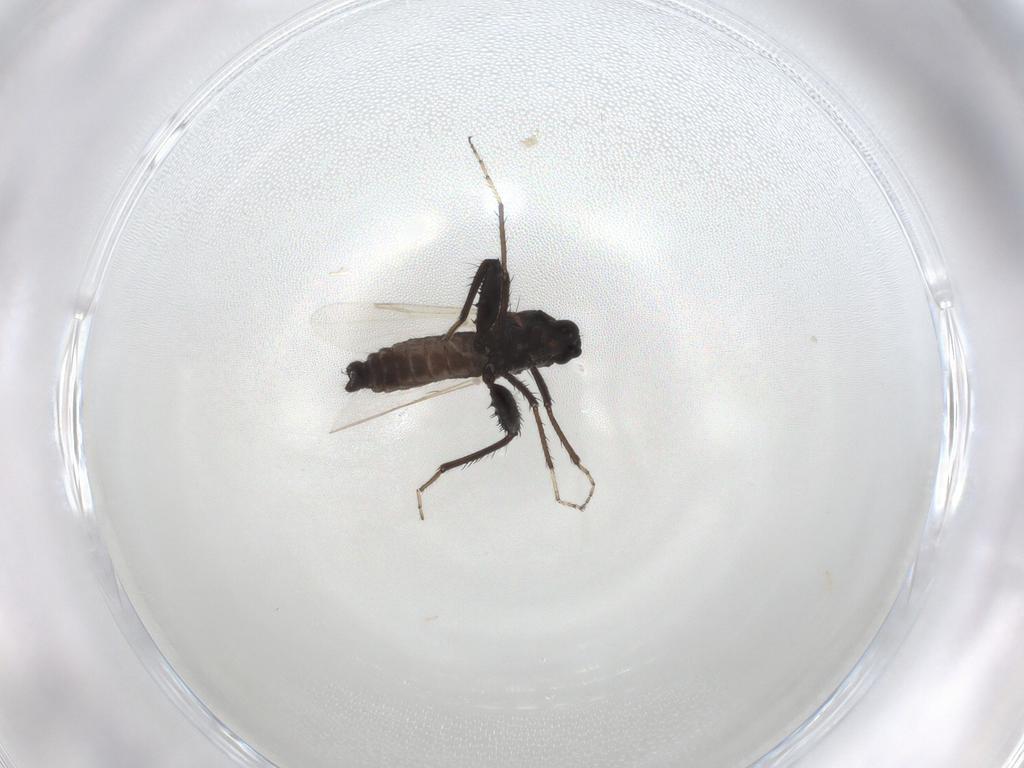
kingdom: Animalia
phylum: Arthropoda
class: Insecta
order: Diptera
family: Ceratopogonidae
